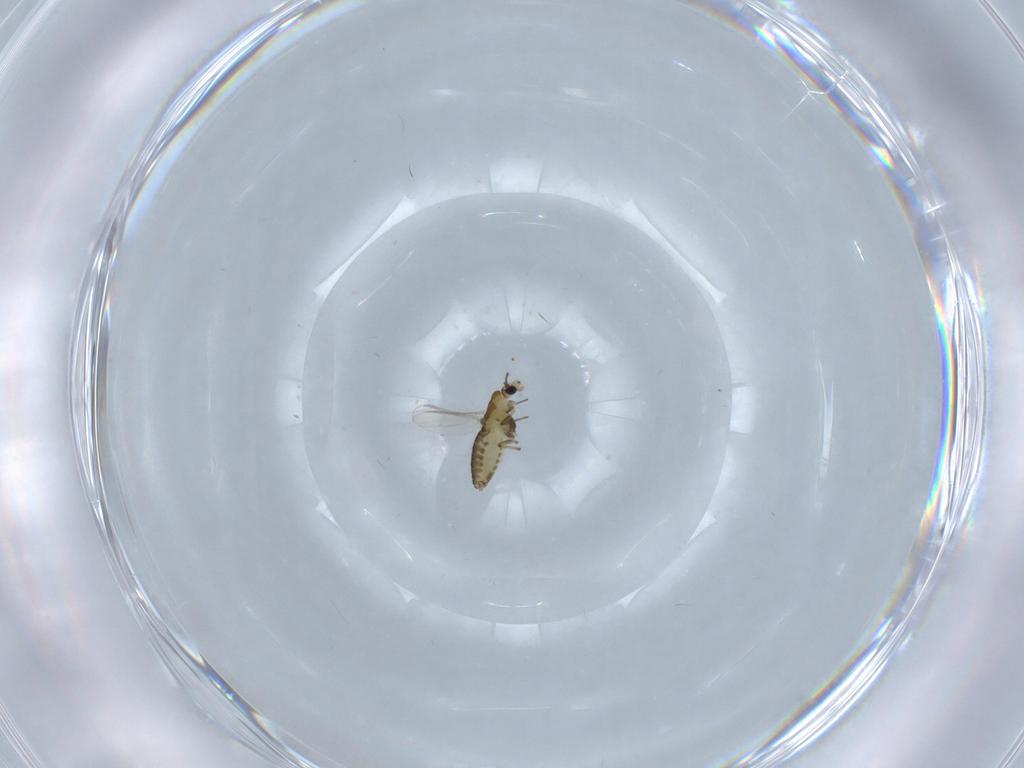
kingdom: Animalia
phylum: Arthropoda
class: Insecta
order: Diptera
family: Chironomidae
